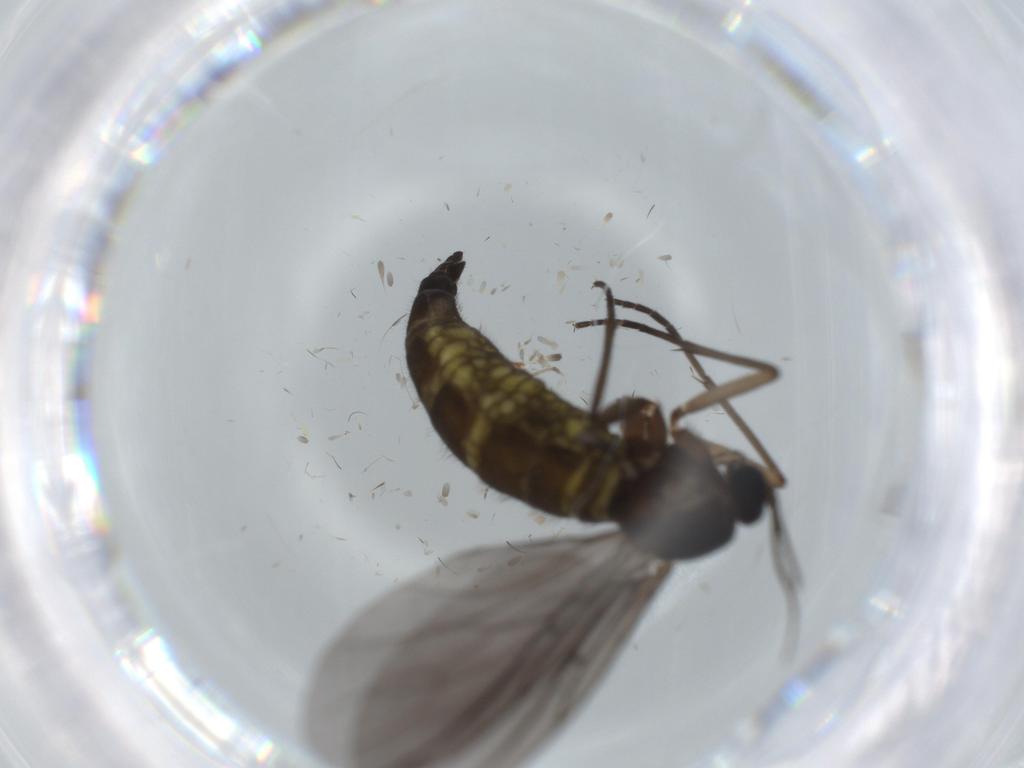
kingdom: Animalia
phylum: Arthropoda
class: Insecta
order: Diptera
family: Sciaridae
